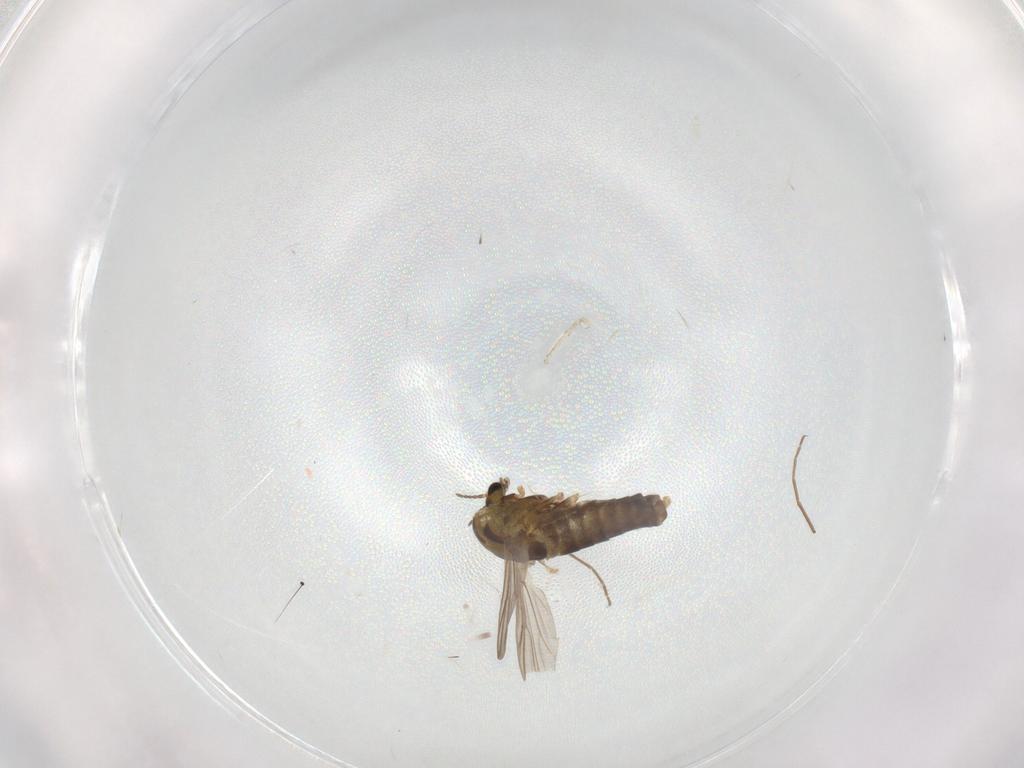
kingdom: Animalia
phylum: Arthropoda
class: Insecta
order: Diptera
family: Chironomidae
